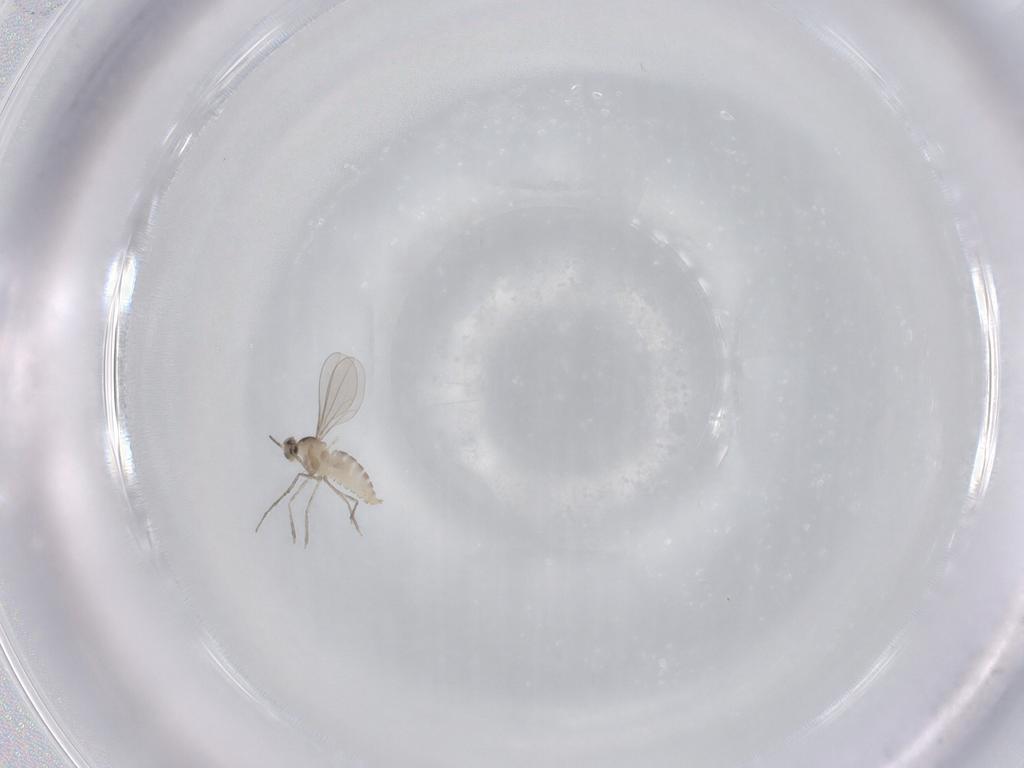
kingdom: Animalia
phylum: Arthropoda
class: Insecta
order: Diptera
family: Cecidomyiidae
